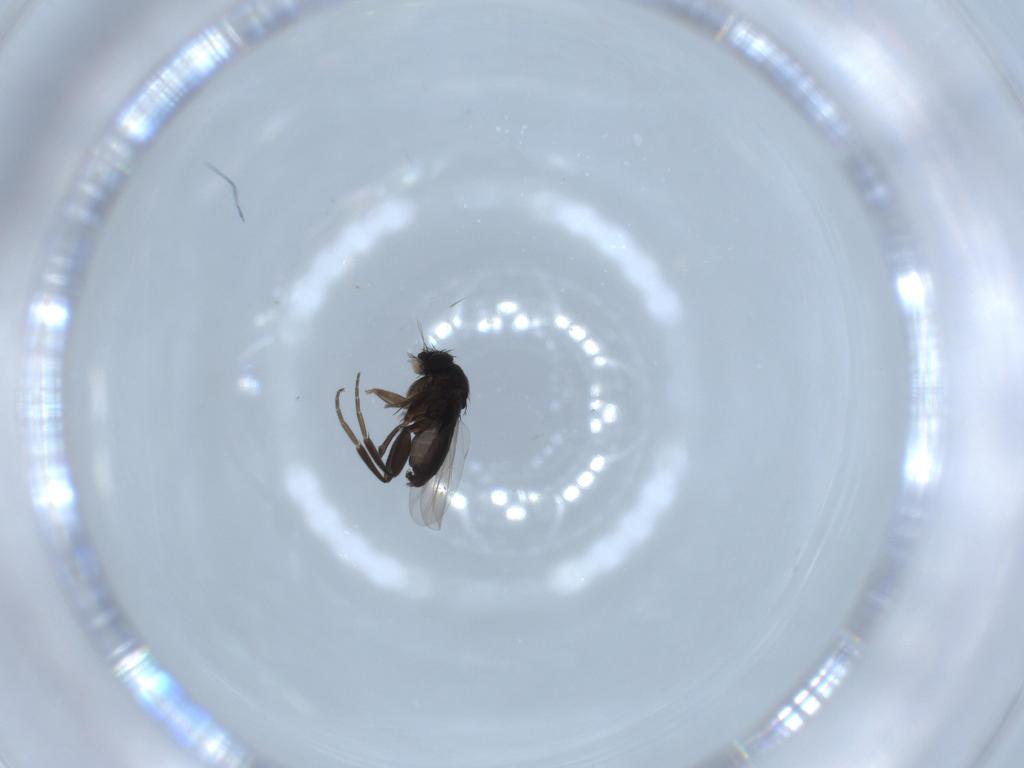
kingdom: Animalia
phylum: Arthropoda
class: Insecta
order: Diptera
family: Phoridae
